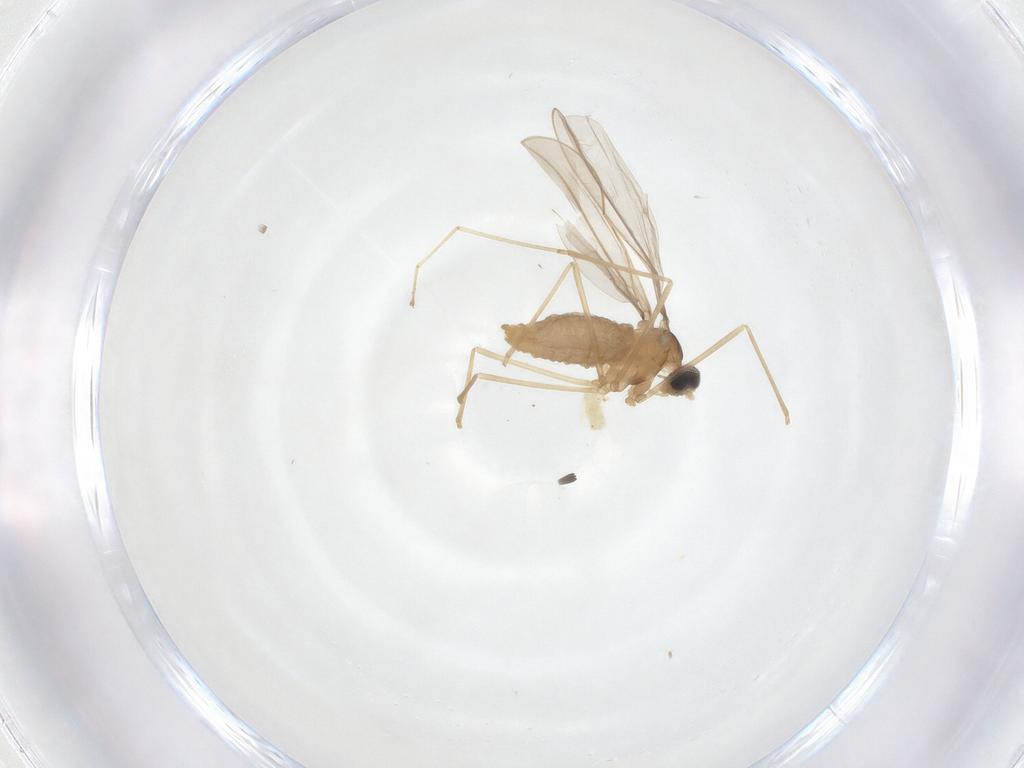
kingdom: Animalia
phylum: Arthropoda
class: Insecta
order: Diptera
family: Cecidomyiidae
